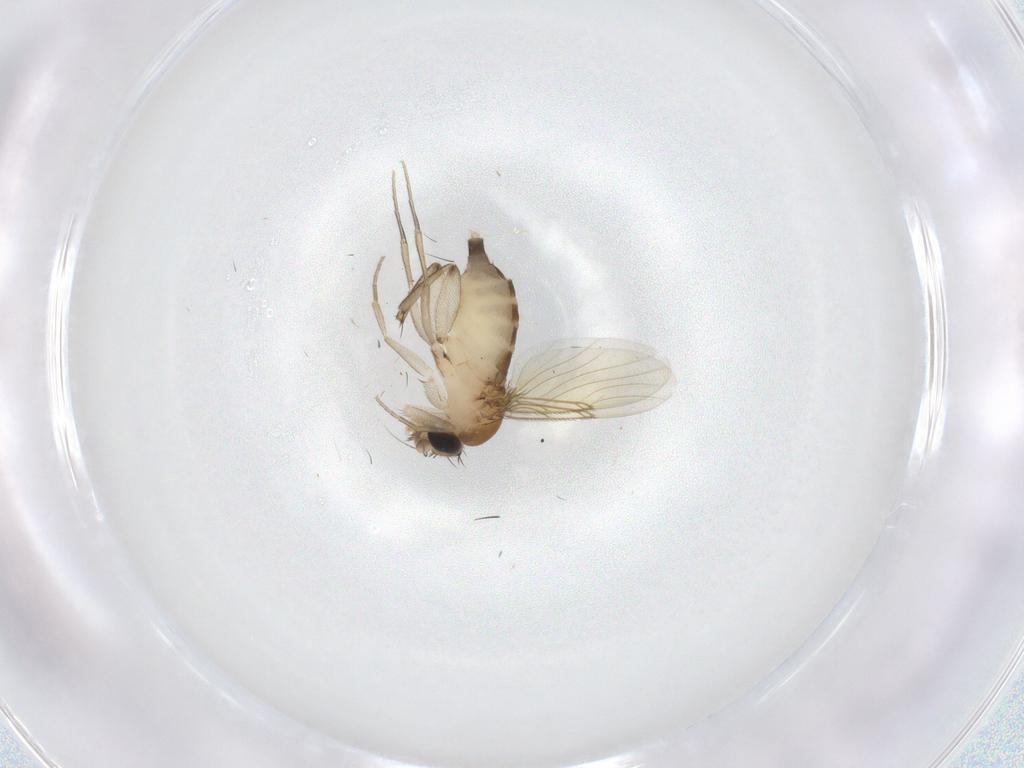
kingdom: Animalia
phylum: Arthropoda
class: Insecta
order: Diptera
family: Phoridae
